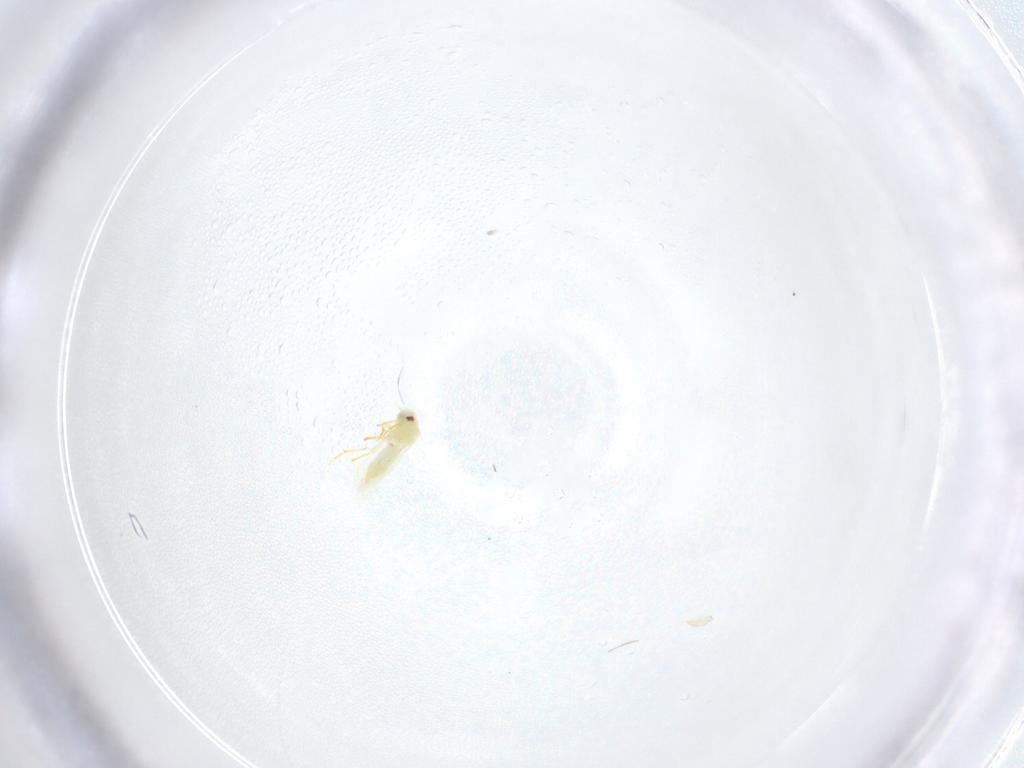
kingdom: Animalia
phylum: Arthropoda
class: Insecta
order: Hemiptera
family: Aleyrodidae
